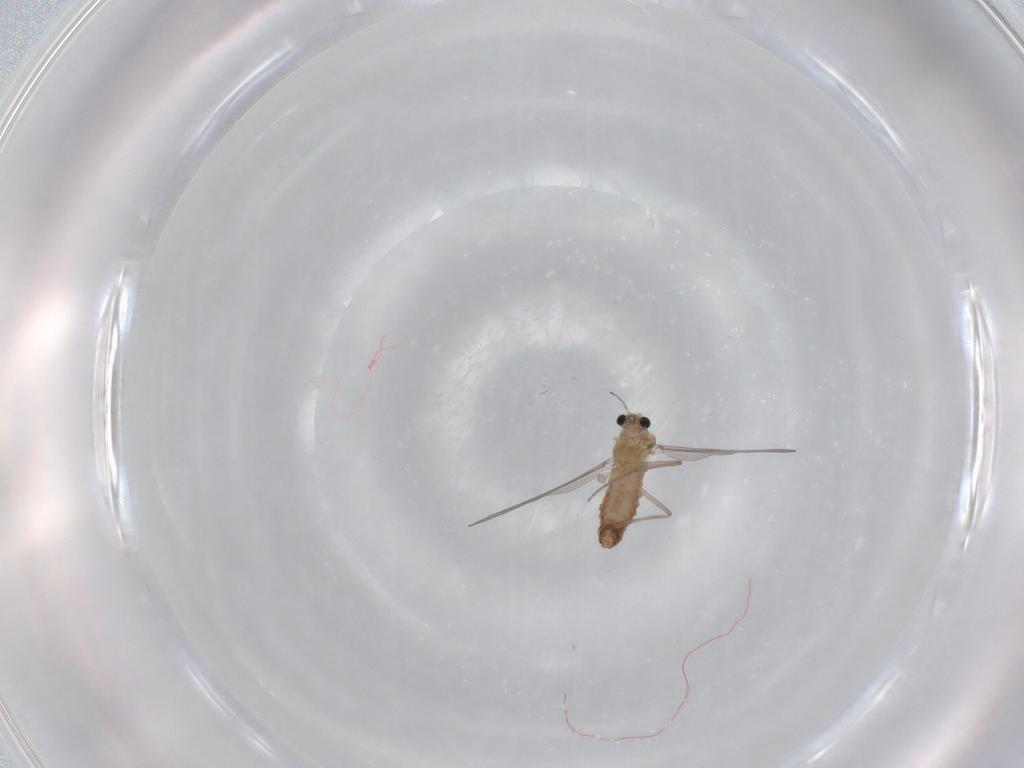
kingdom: Animalia
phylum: Arthropoda
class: Insecta
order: Diptera
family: Chironomidae
